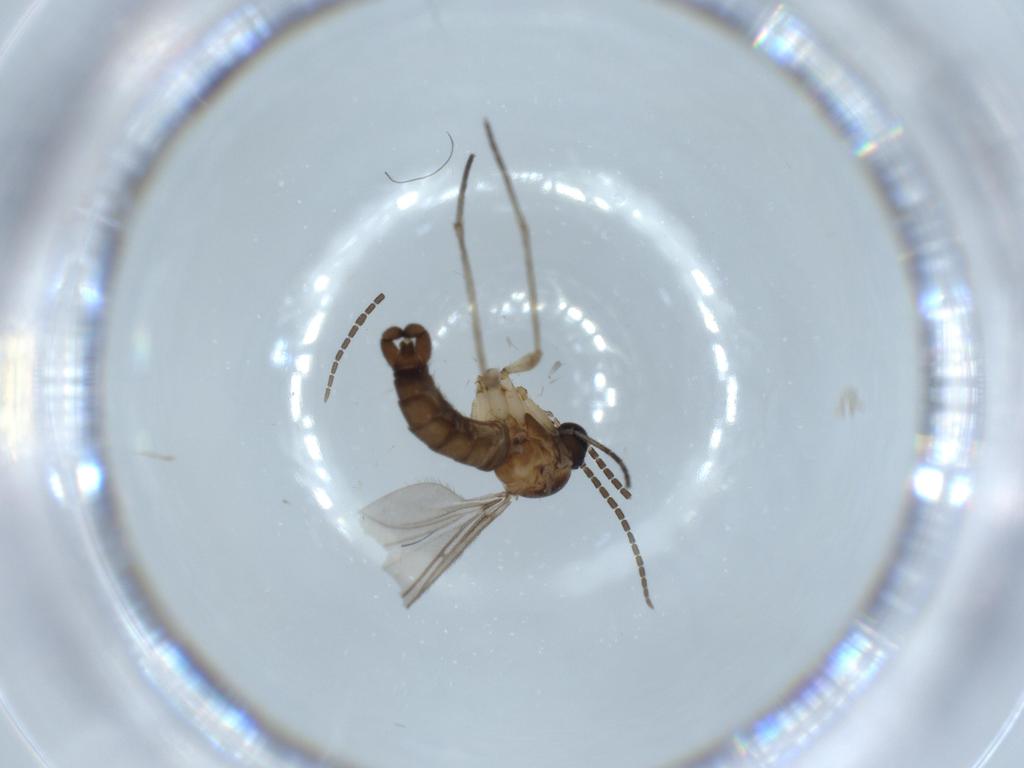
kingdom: Animalia
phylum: Arthropoda
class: Insecta
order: Diptera
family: Sciaridae
